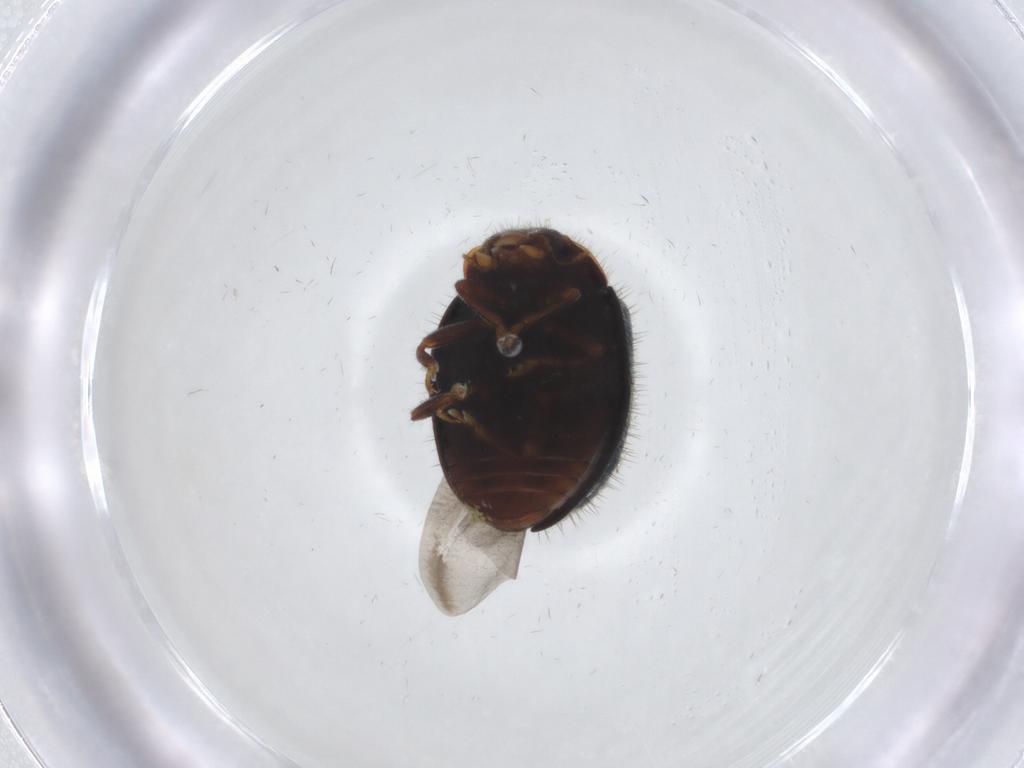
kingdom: Animalia
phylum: Arthropoda
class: Insecta
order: Coleoptera
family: Coccinellidae
